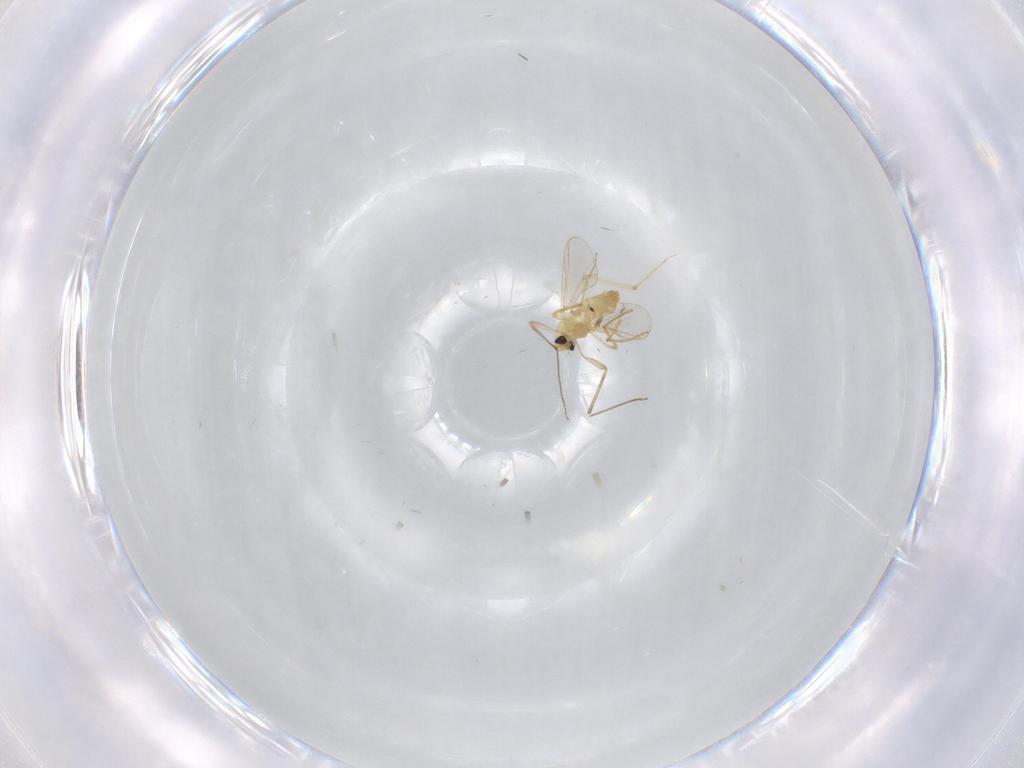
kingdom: Animalia
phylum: Arthropoda
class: Insecta
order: Diptera
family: Chironomidae
